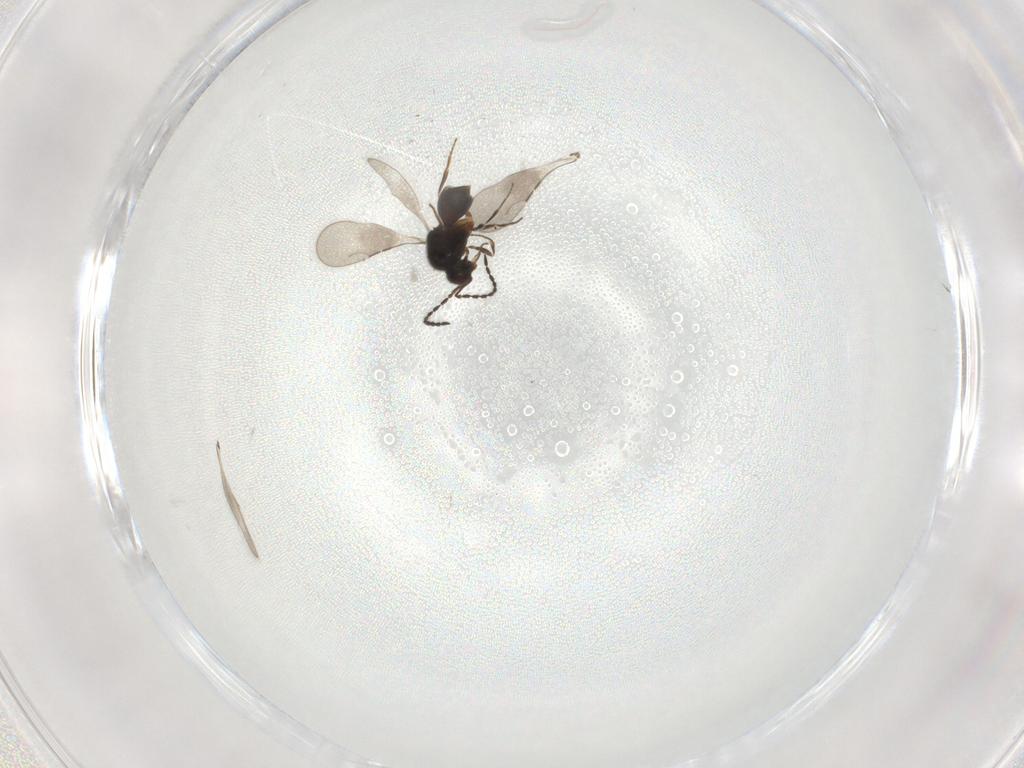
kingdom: Animalia
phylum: Arthropoda
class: Insecta
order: Hymenoptera
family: Ceraphronidae
